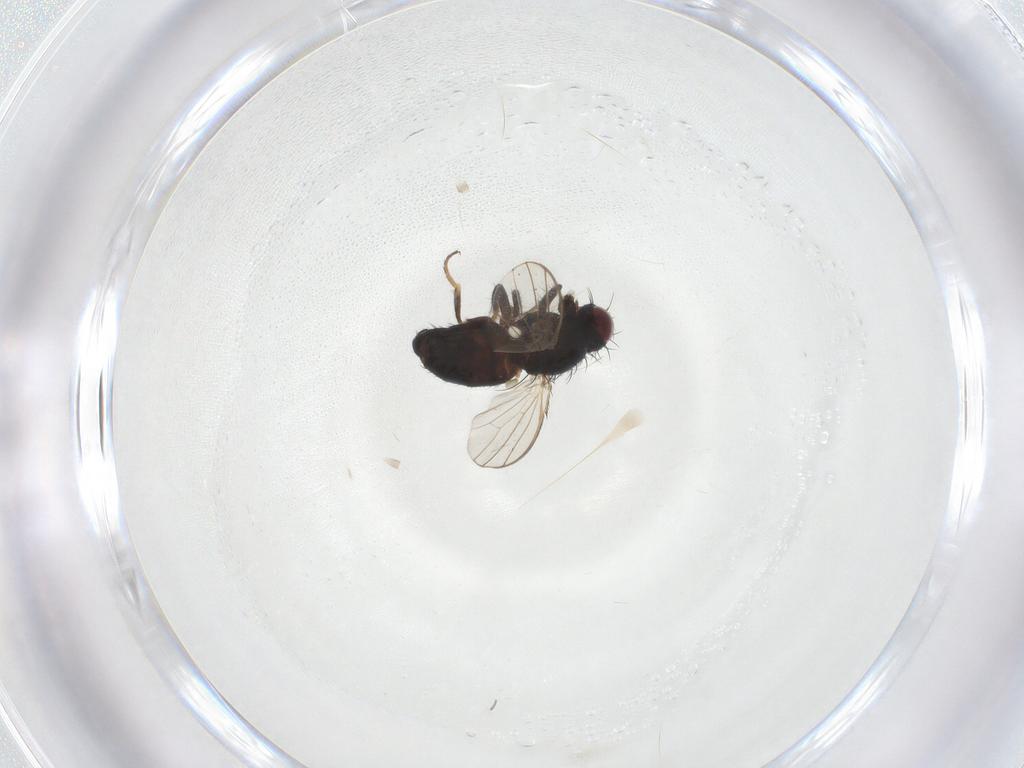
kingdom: Animalia
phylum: Arthropoda
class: Insecta
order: Diptera
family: Carnidae
